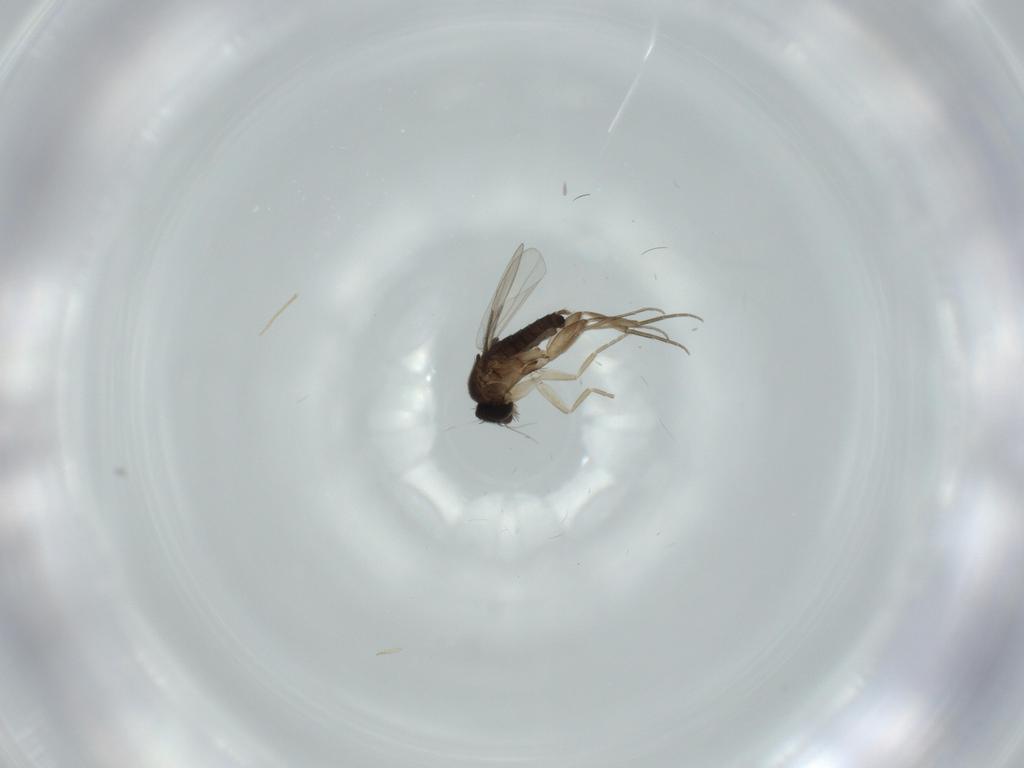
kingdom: Animalia
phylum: Arthropoda
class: Insecta
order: Diptera
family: Phoridae
